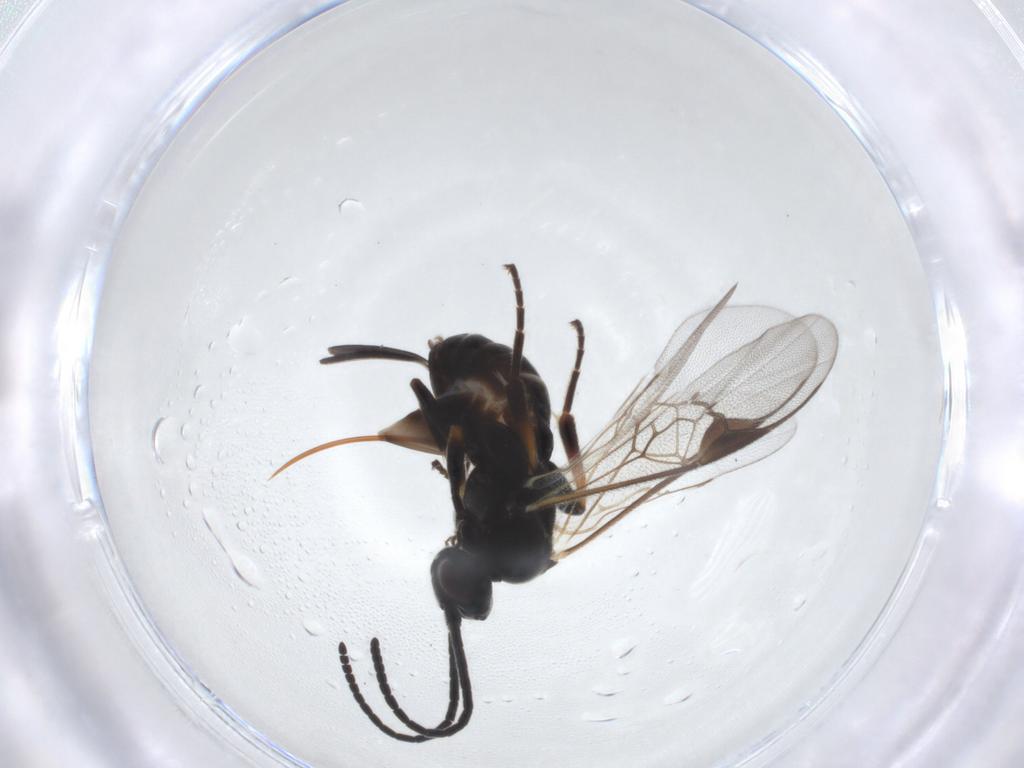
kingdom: Animalia
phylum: Arthropoda
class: Insecta
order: Hymenoptera
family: Braconidae
